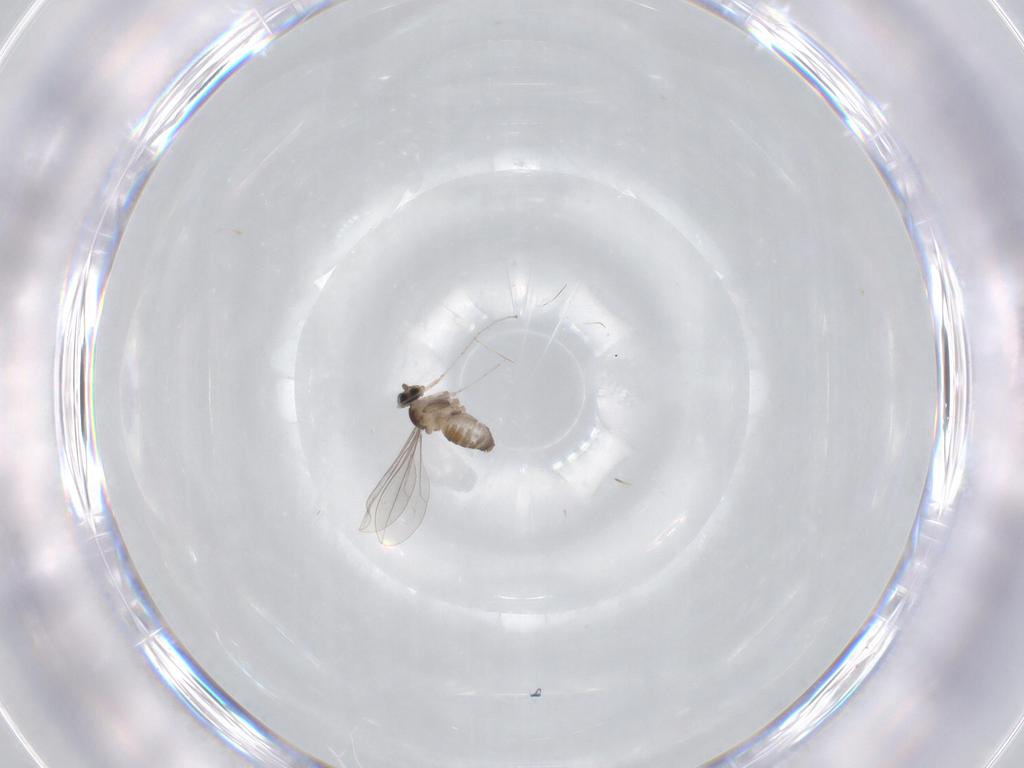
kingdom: Animalia
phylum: Arthropoda
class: Insecta
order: Diptera
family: Cecidomyiidae
